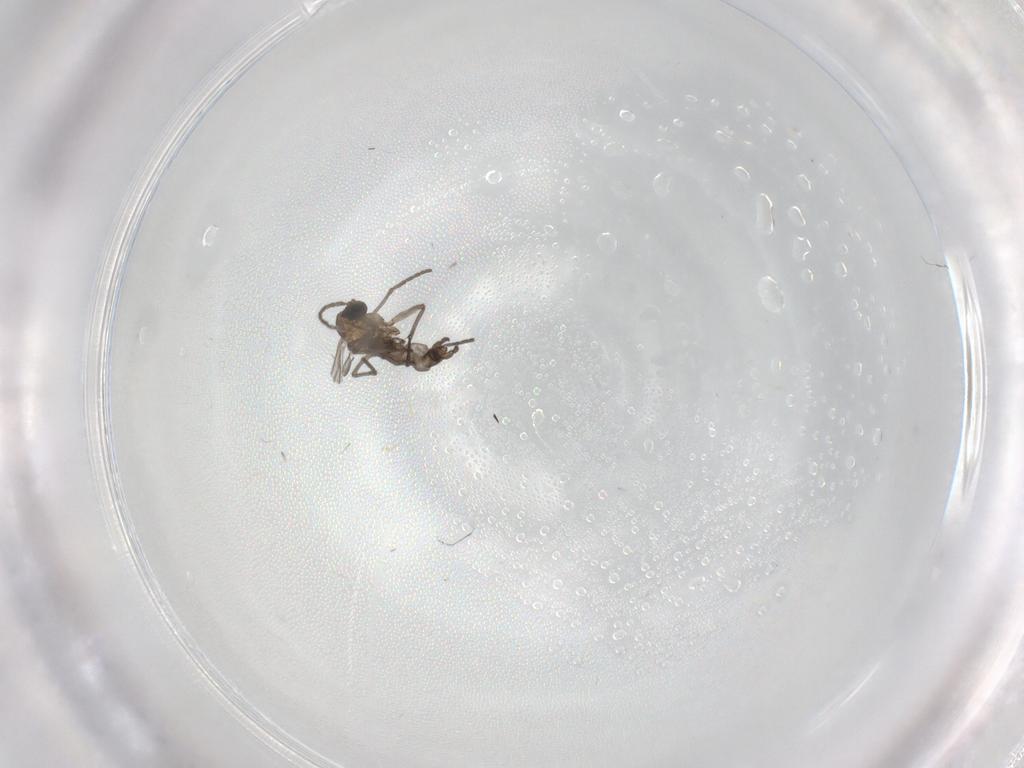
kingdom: Animalia
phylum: Arthropoda
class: Insecta
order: Diptera
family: Sciaridae
